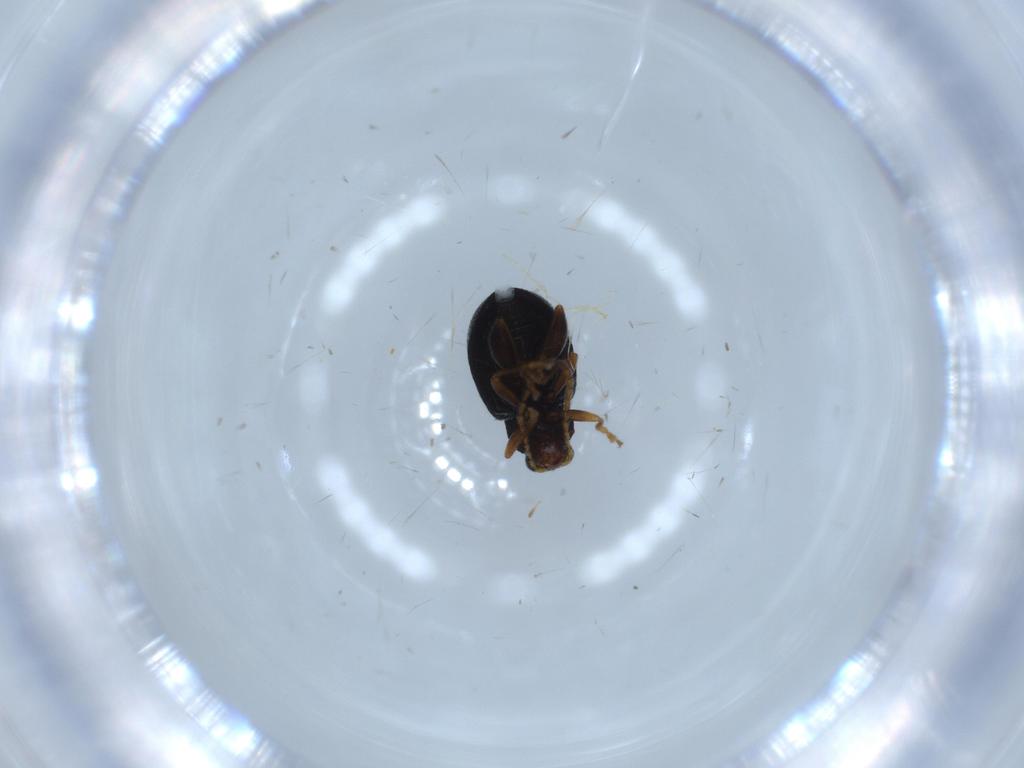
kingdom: Animalia
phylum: Arthropoda
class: Insecta
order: Coleoptera
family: Chrysomelidae
